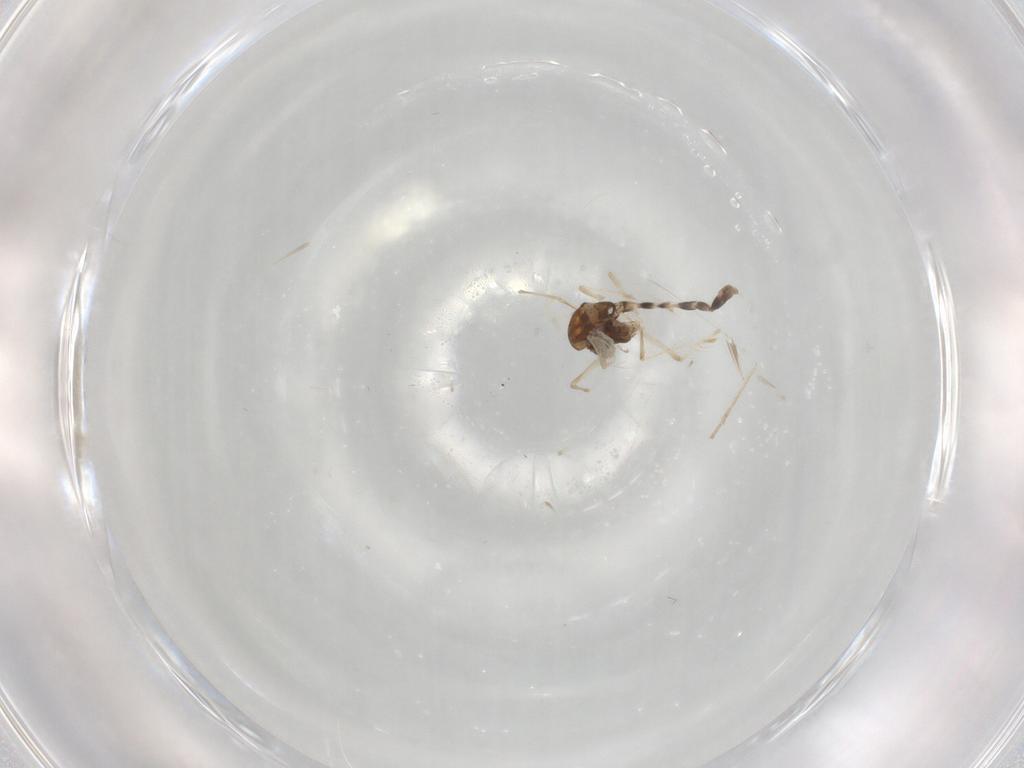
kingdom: Animalia
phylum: Arthropoda
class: Insecta
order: Diptera
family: Chironomidae
